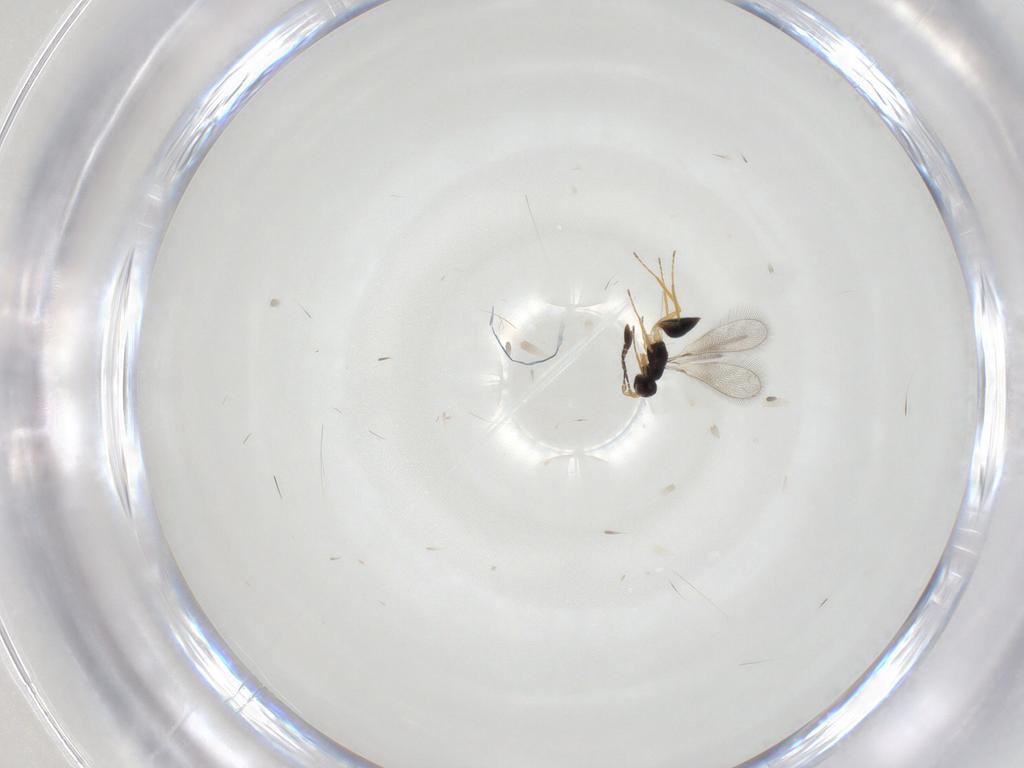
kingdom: Animalia
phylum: Arthropoda
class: Insecta
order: Hymenoptera
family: Mymaridae
